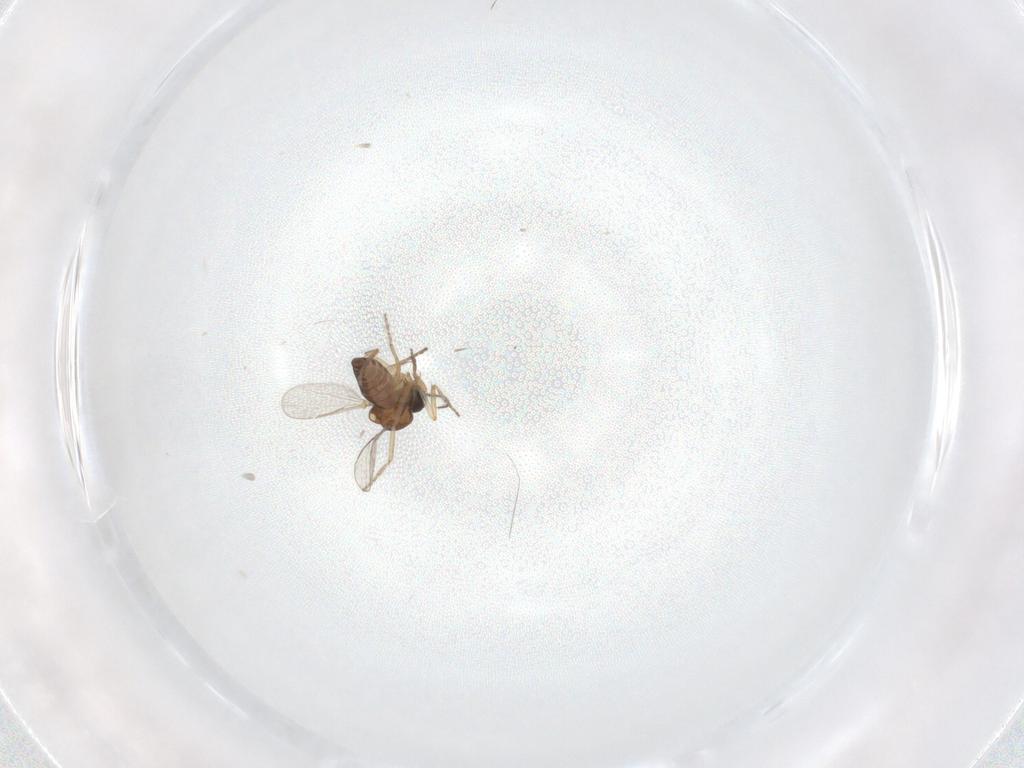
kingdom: Animalia
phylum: Arthropoda
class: Insecta
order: Diptera
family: Ceratopogonidae
